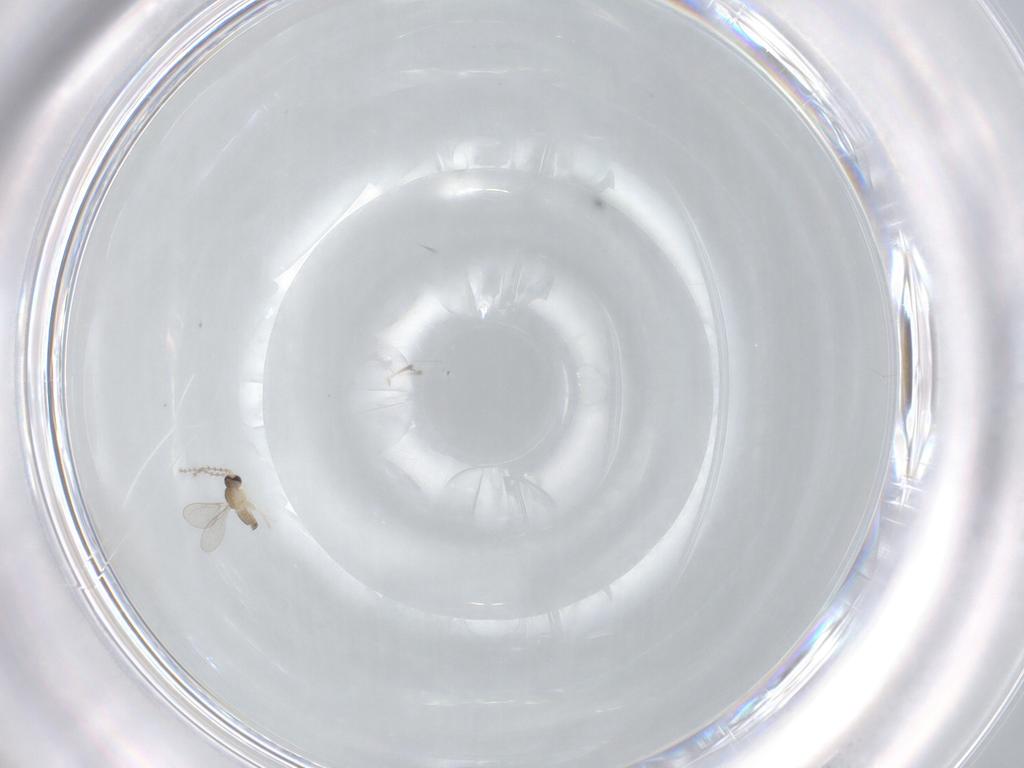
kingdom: Animalia
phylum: Arthropoda
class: Insecta
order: Diptera
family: Cecidomyiidae
